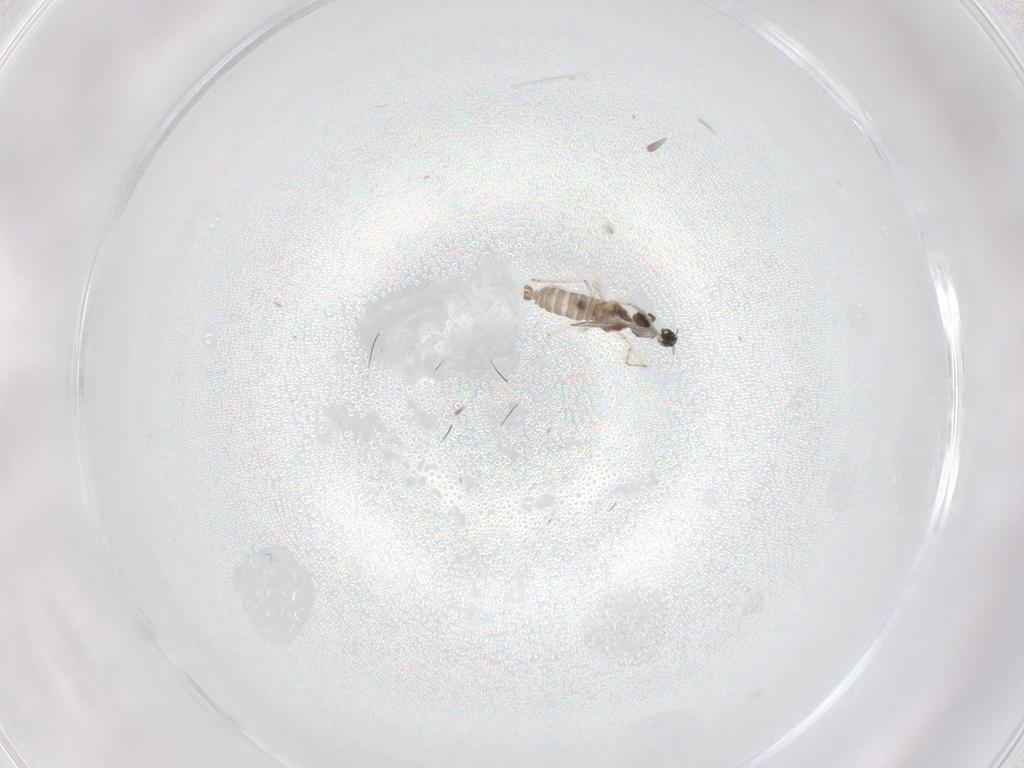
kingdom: Animalia
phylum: Arthropoda
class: Insecta
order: Diptera
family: Cecidomyiidae
